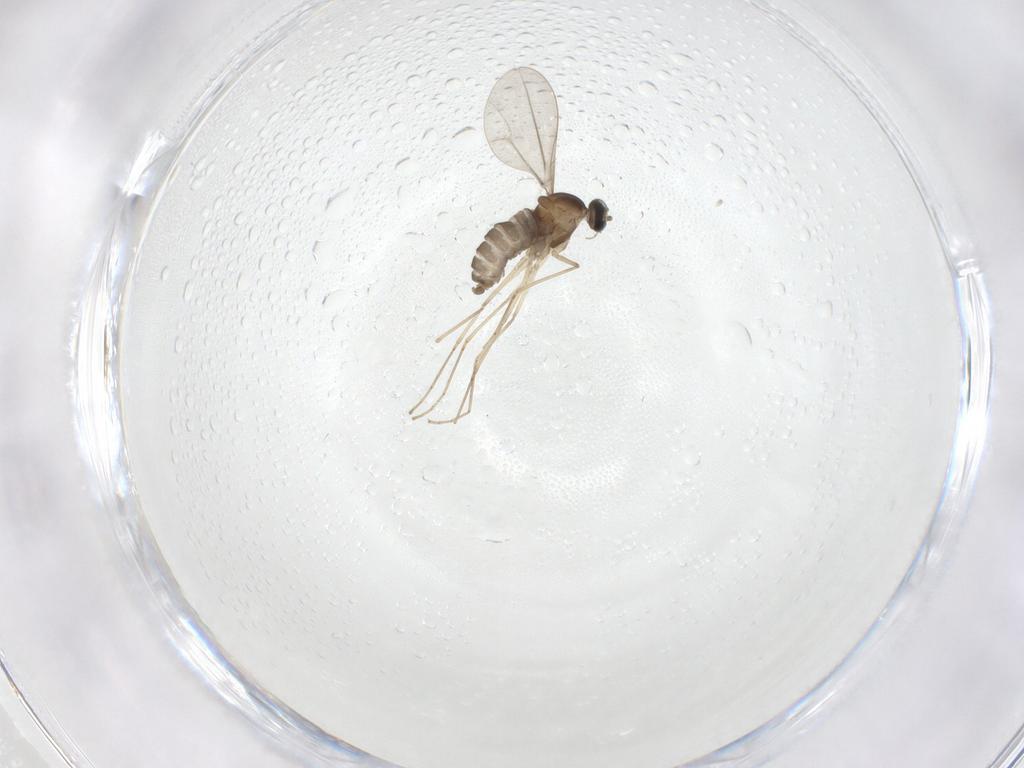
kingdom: Animalia
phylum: Arthropoda
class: Insecta
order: Diptera
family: Cecidomyiidae
